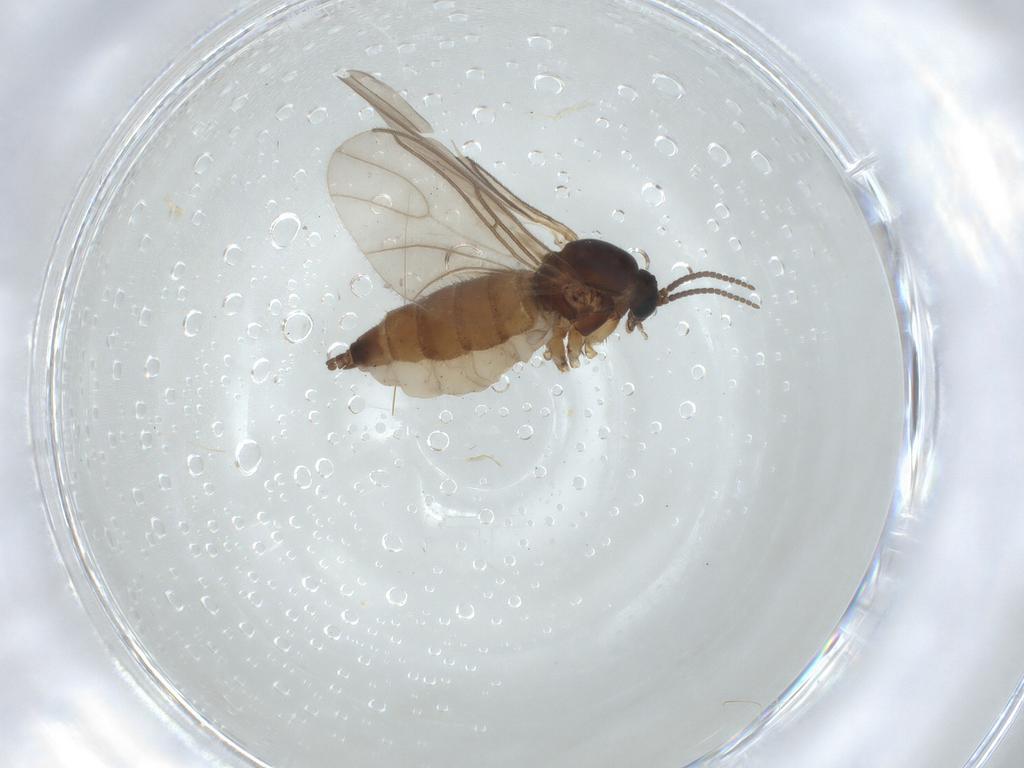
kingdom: Animalia
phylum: Arthropoda
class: Insecta
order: Diptera
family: Sciaridae
